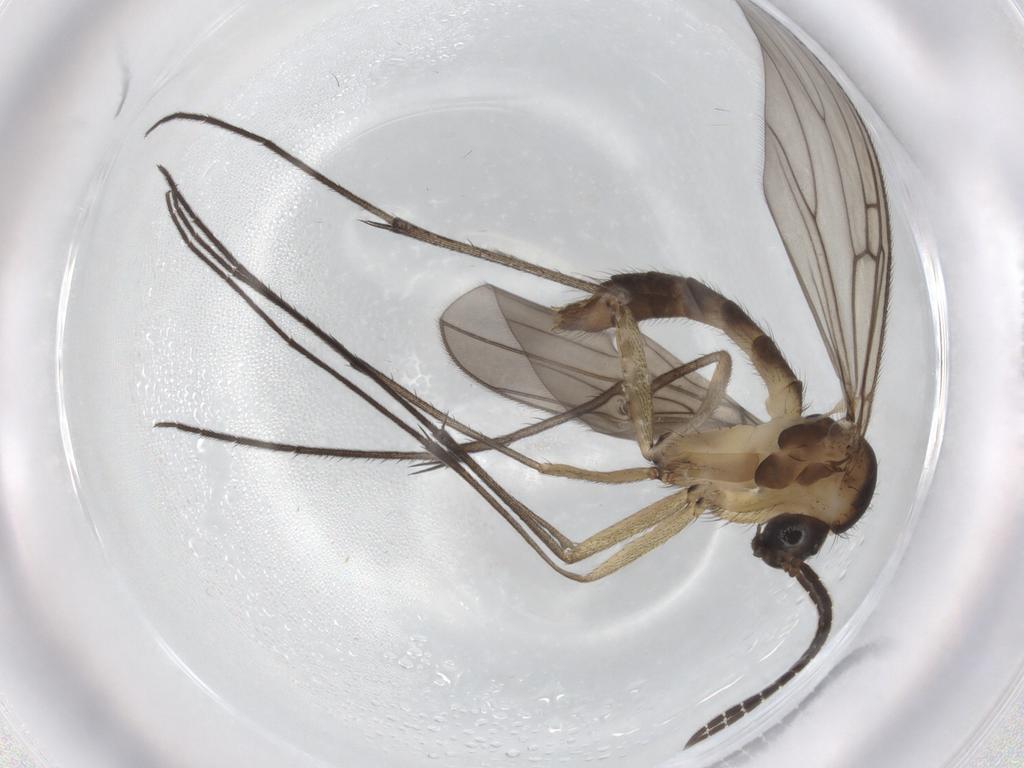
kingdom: Animalia
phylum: Arthropoda
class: Insecta
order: Diptera
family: Mycetophilidae
